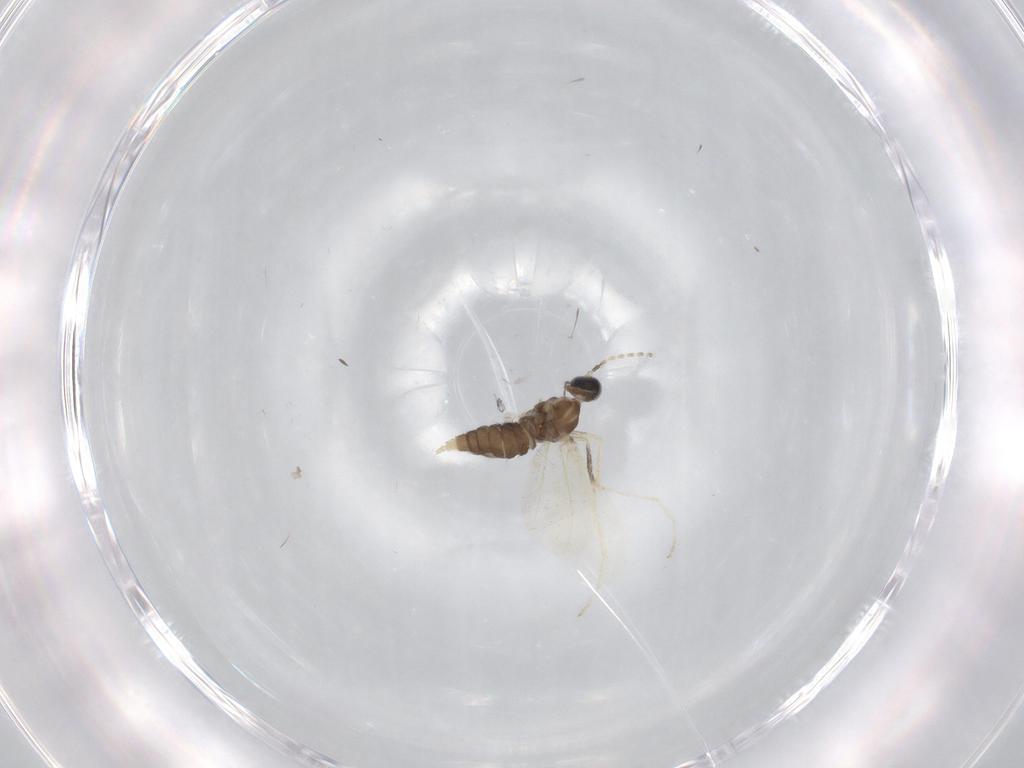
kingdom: Animalia
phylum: Arthropoda
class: Insecta
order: Diptera
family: Cecidomyiidae
